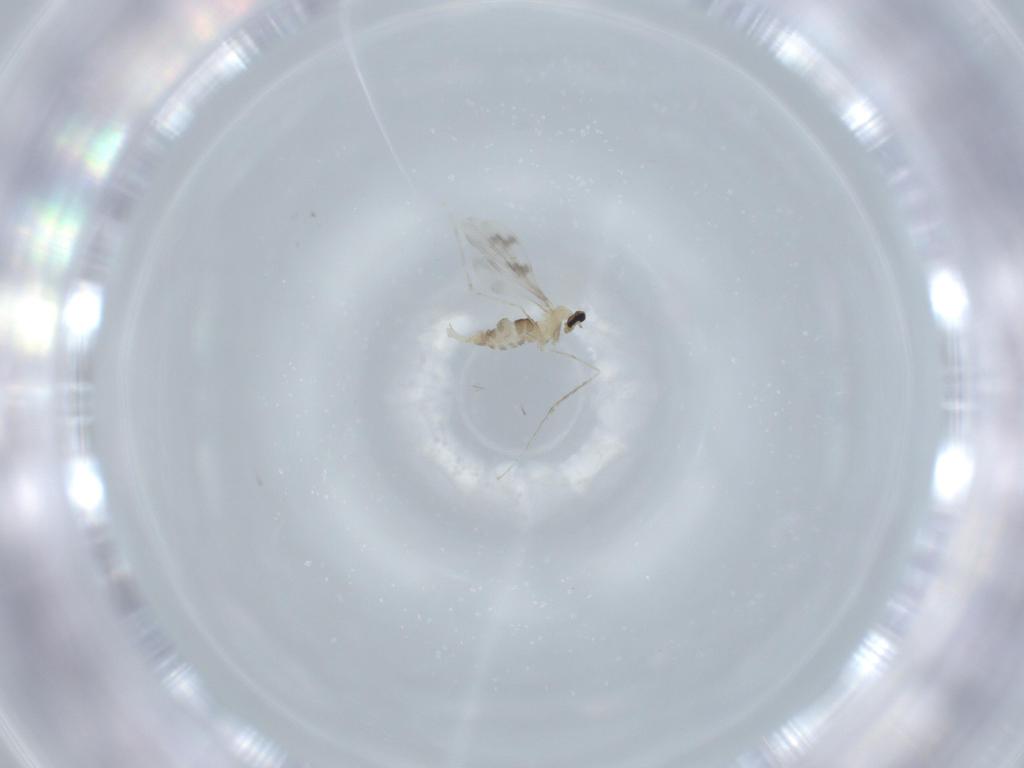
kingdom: Animalia
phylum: Arthropoda
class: Insecta
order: Diptera
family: Cecidomyiidae
